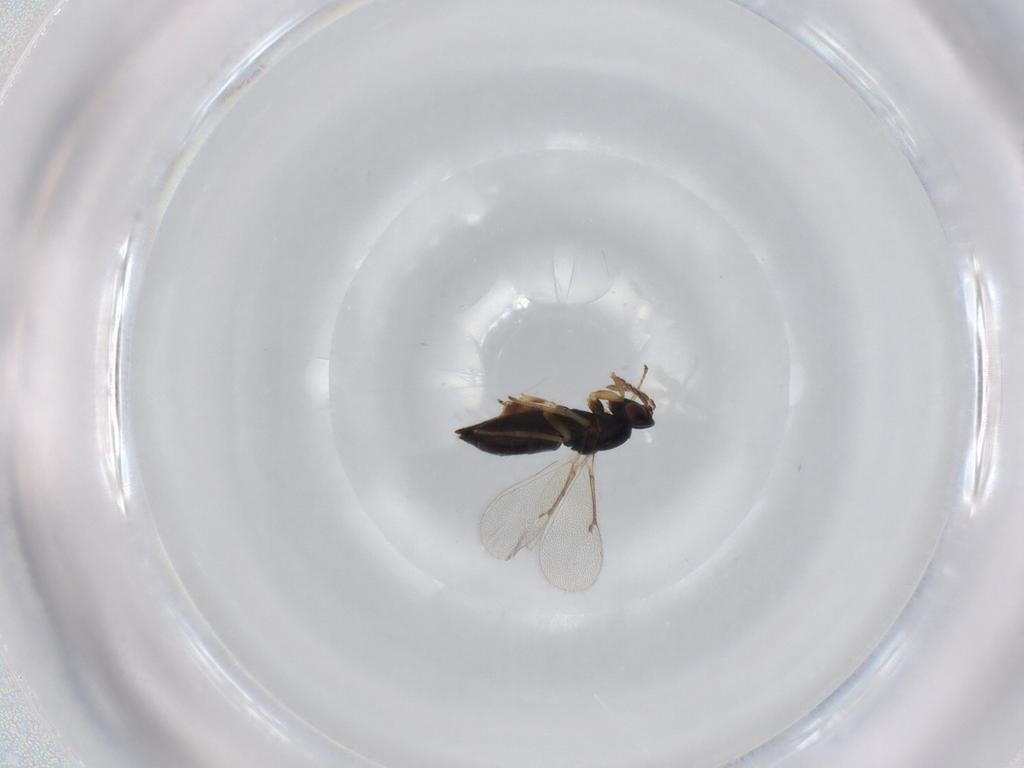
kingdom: Animalia
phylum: Arthropoda
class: Insecta
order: Hymenoptera
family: Eulophidae
